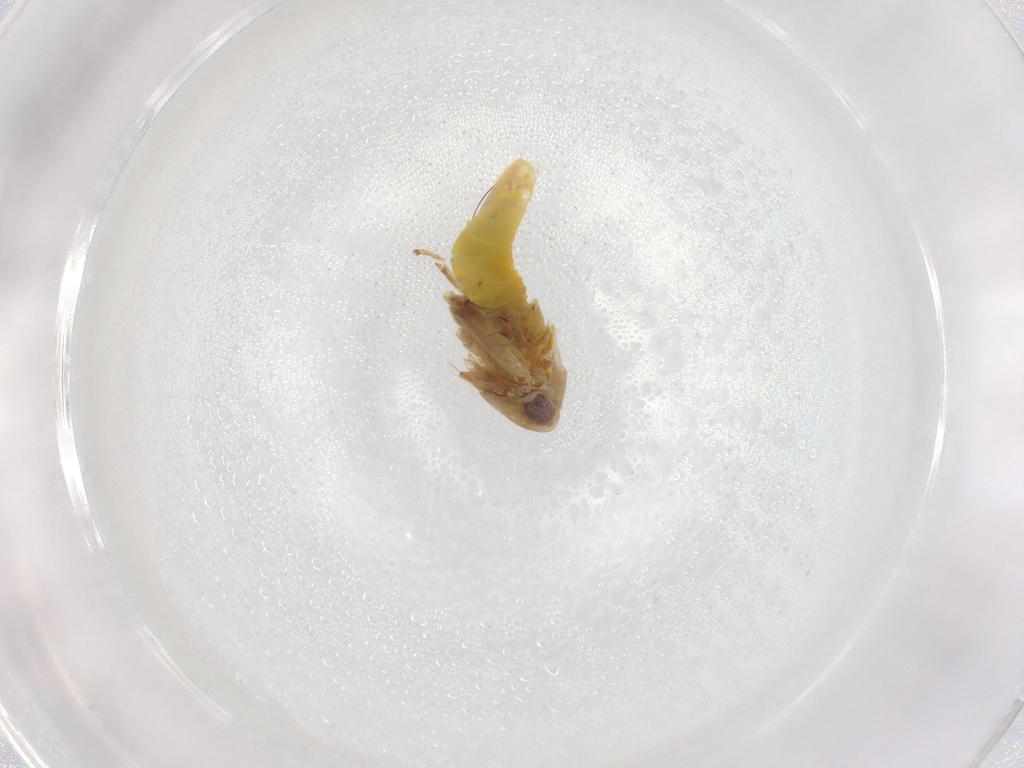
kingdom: Animalia
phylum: Arthropoda
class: Insecta
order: Hemiptera
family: Cicadellidae
